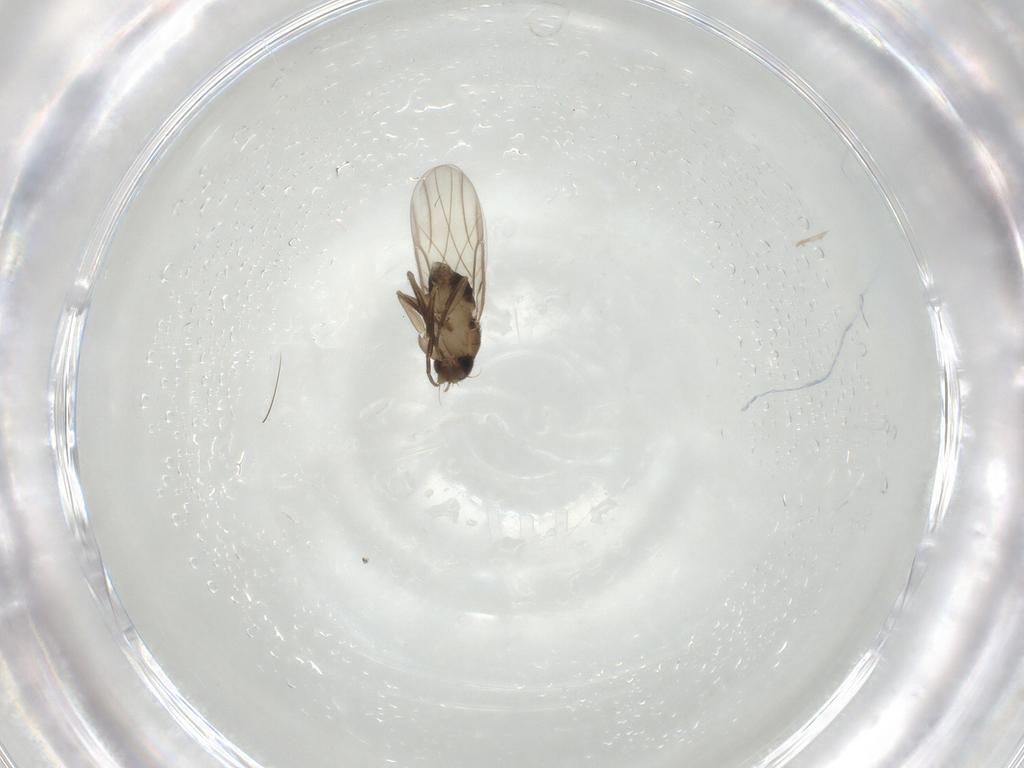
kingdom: Animalia
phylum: Arthropoda
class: Insecta
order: Diptera
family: Phoridae
